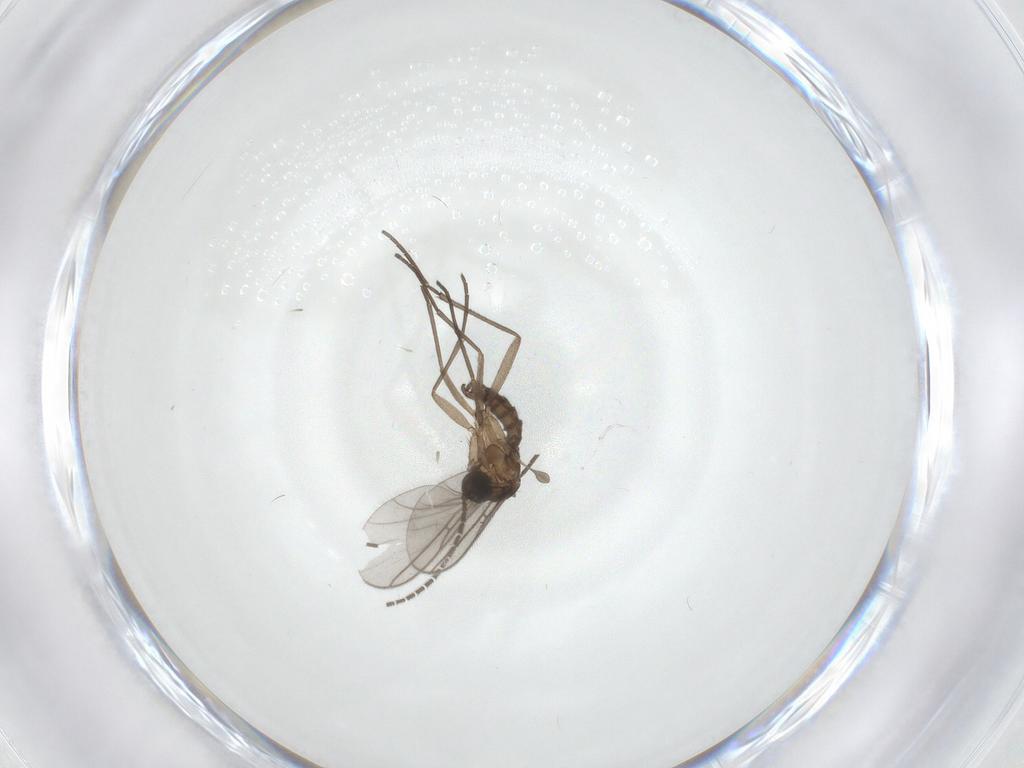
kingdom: Animalia
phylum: Arthropoda
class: Insecta
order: Diptera
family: Sciaridae
